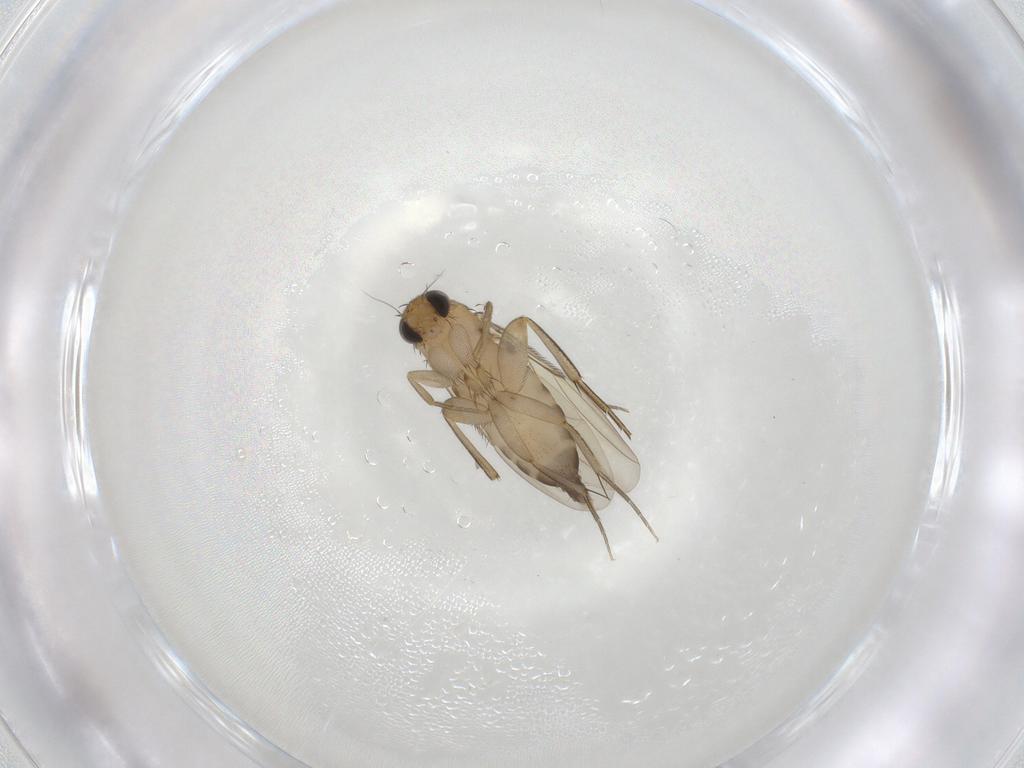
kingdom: Animalia
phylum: Arthropoda
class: Insecta
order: Diptera
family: Phoridae
